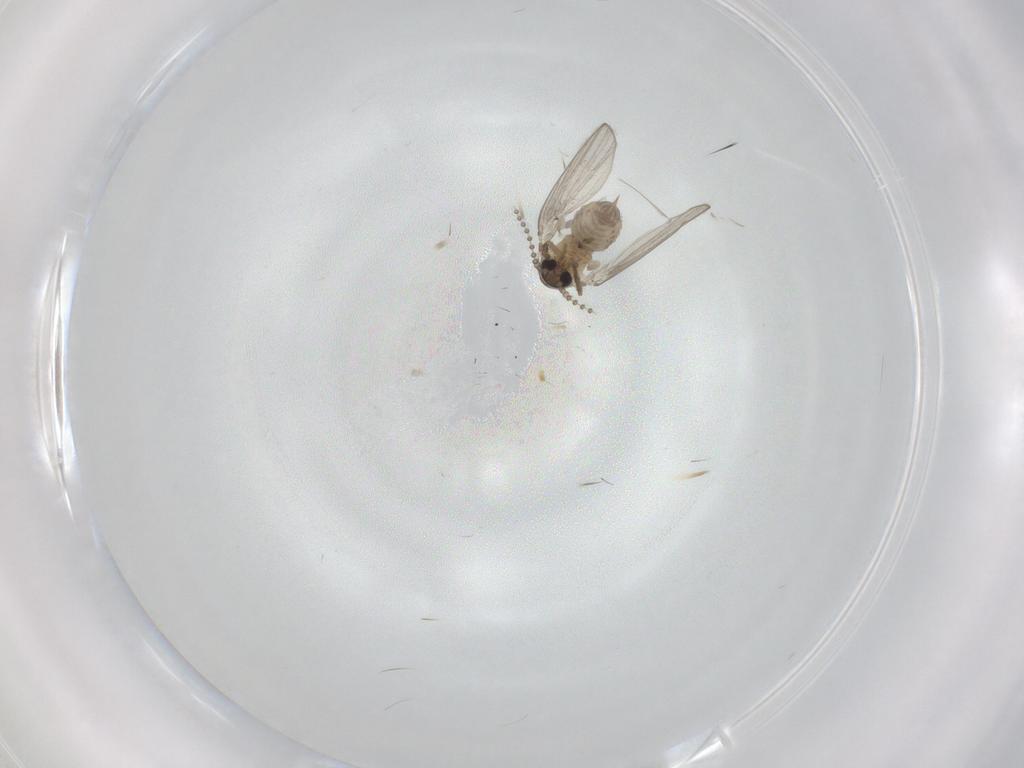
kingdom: Animalia
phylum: Arthropoda
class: Insecta
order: Diptera
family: Psychodidae
